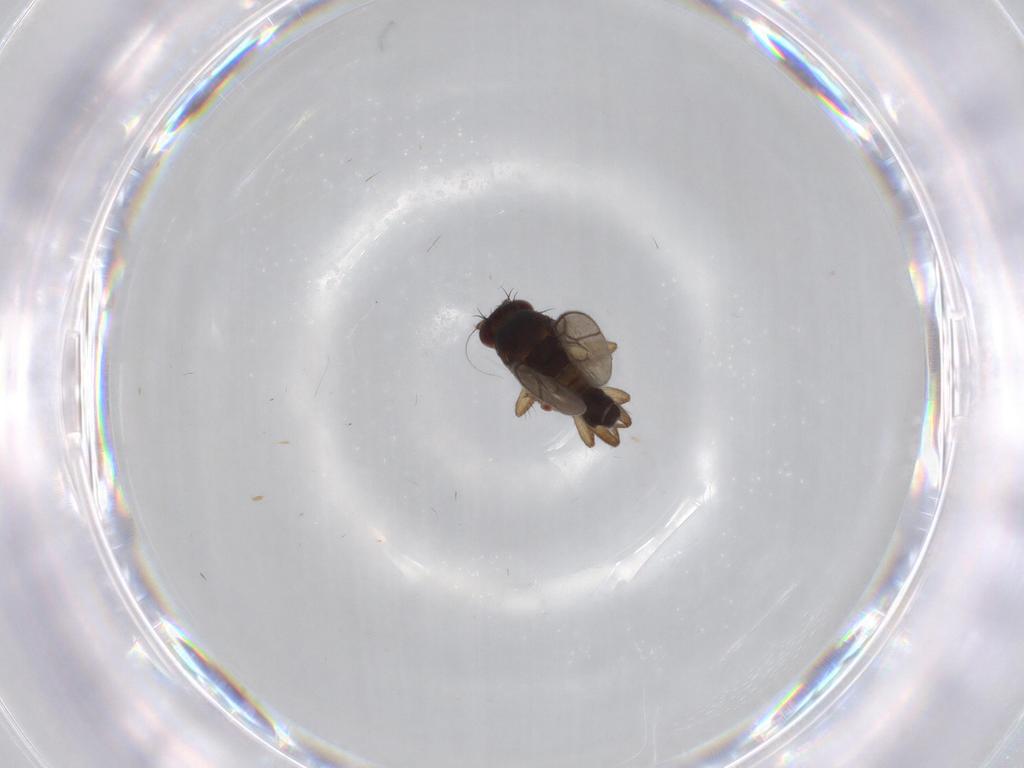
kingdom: Animalia
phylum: Arthropoda
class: Insecta
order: Diptera
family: Sphaeroceridae
